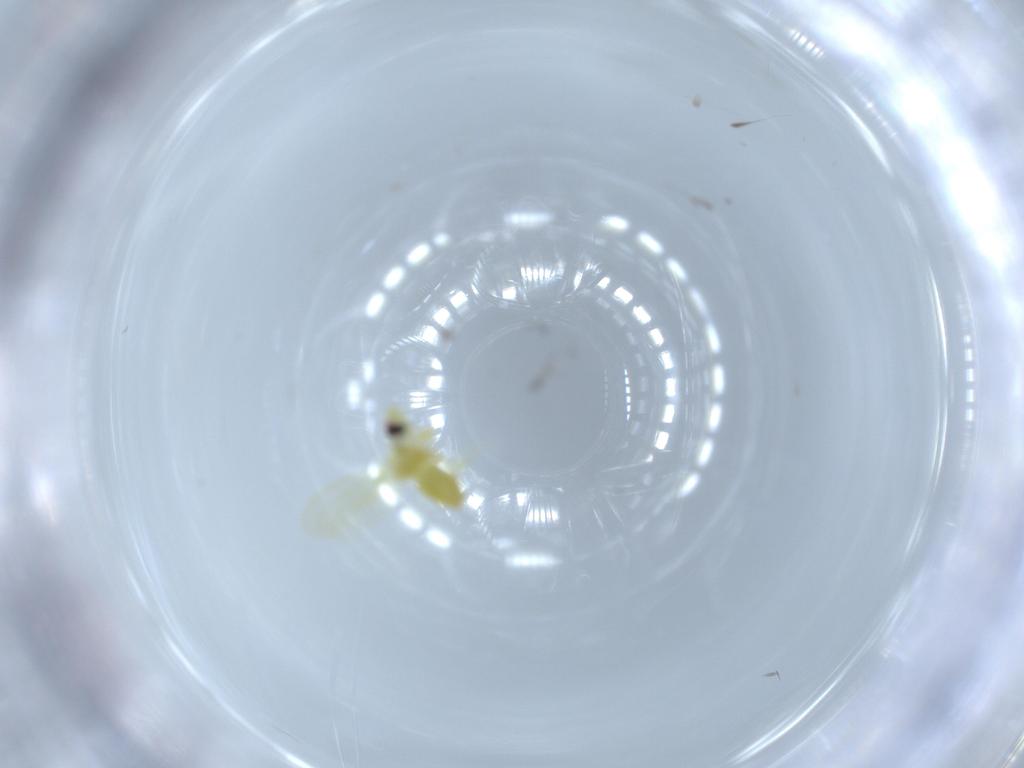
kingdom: Animalia
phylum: Arthropoda
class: Insecta
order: Hemiptera
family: Aleyrodidae
